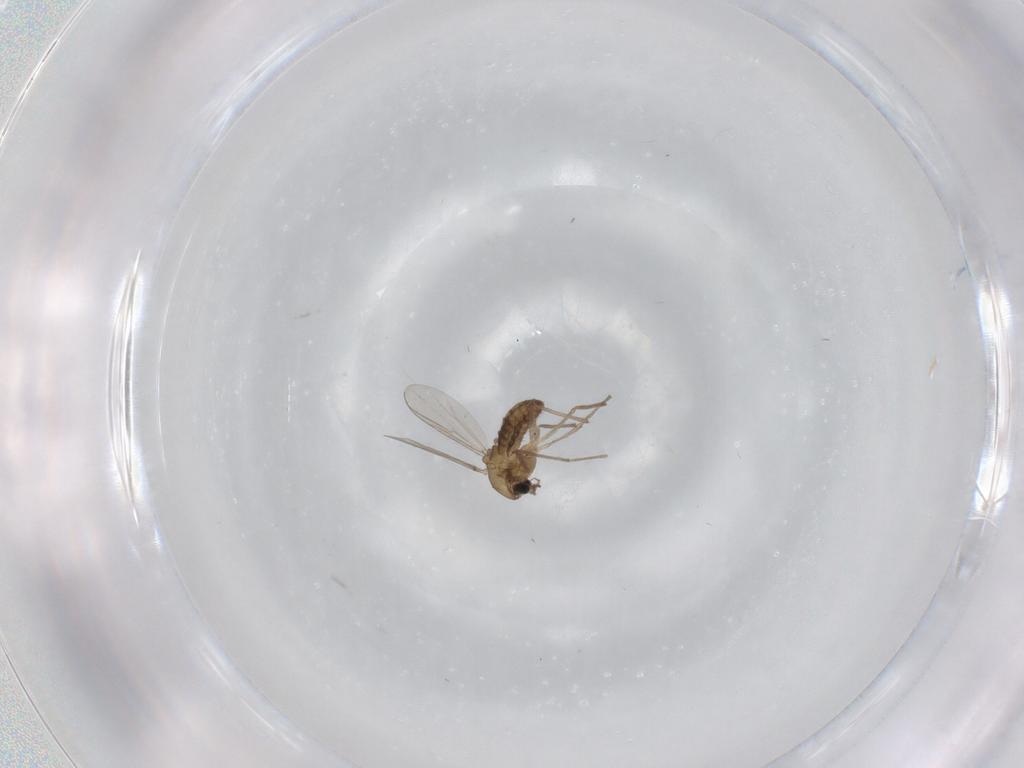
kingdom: Animalia
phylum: Arthropoda
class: Insecta
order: Diptera
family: Chironomidae
